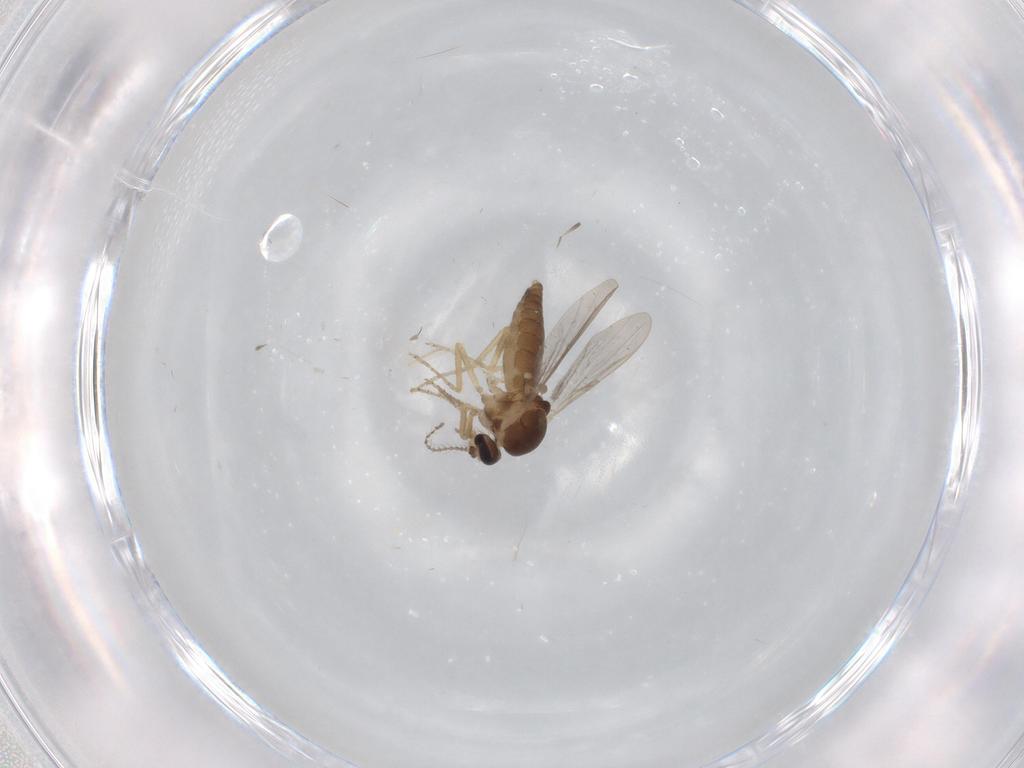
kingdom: Animalia
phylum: Arthropoda
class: Insecta
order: Diptera
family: Ceratopogonidae
